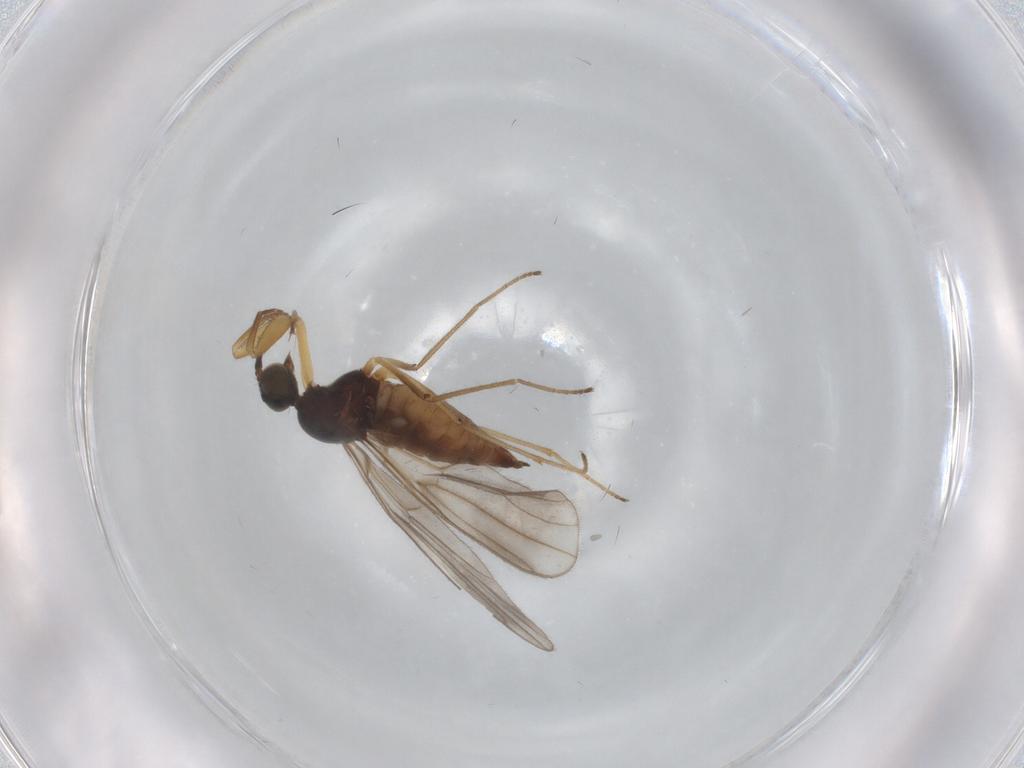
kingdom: Animalia
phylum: Arthropoda
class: Insecta
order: Diptera
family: Empididae
